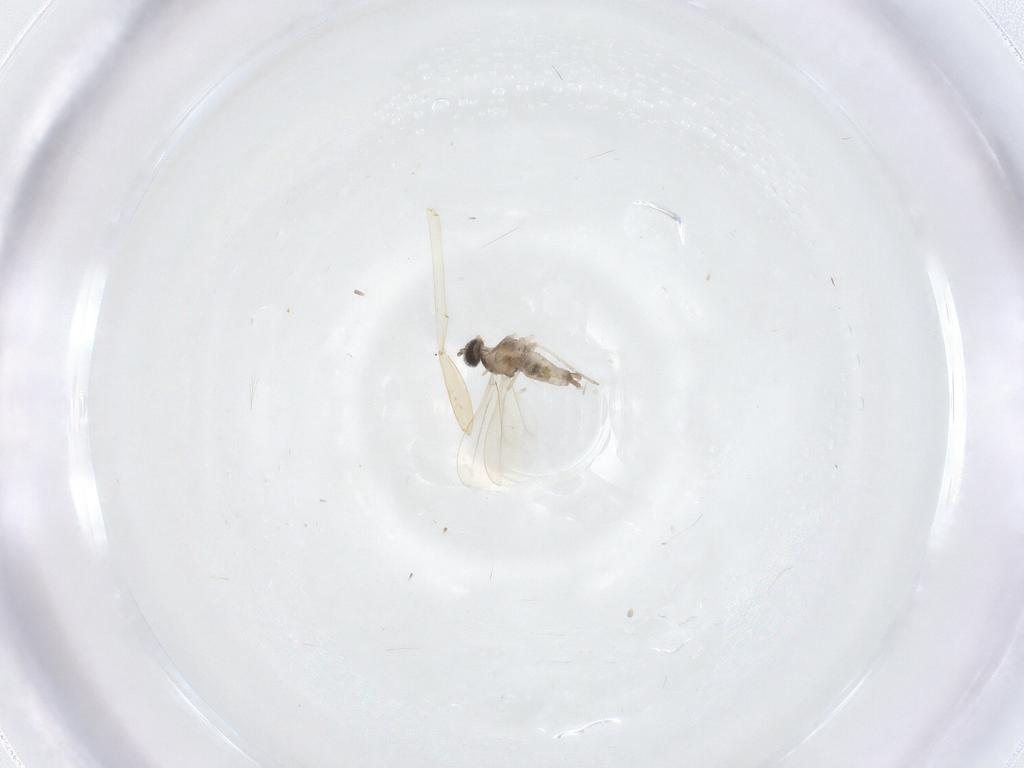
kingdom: Animalia
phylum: Arthropoda
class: Insecta
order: Diptera
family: Cecidomyiidae
